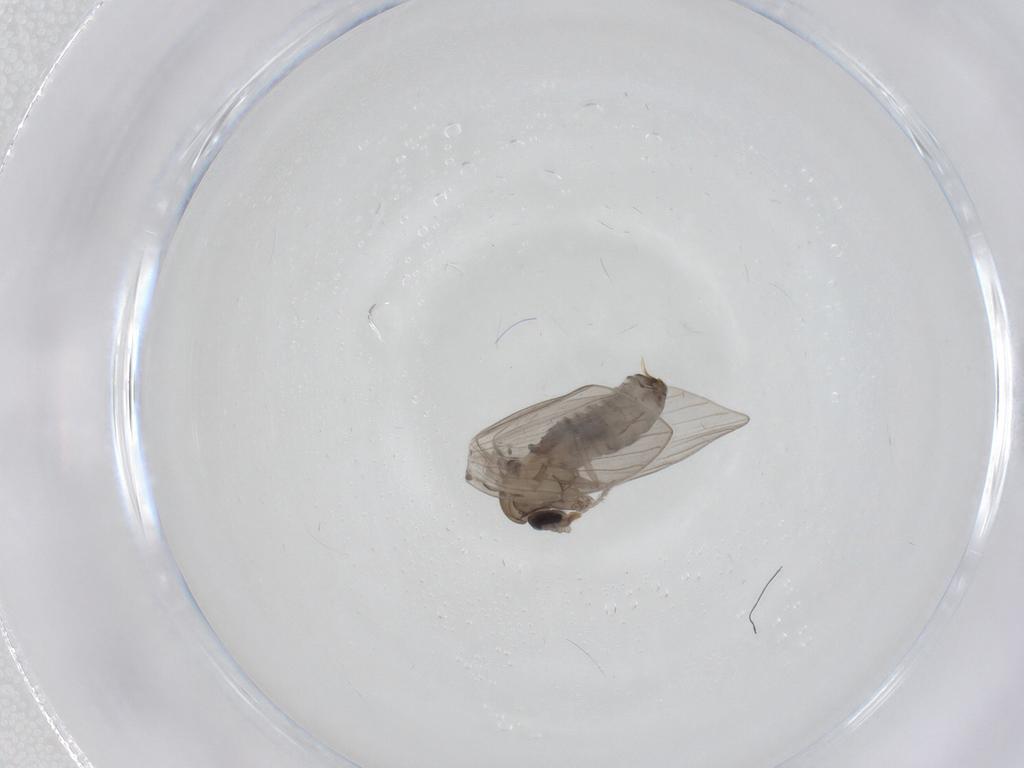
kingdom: Animalia
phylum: Arthropoda
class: Insecta
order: Diptera
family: Psychodidae
